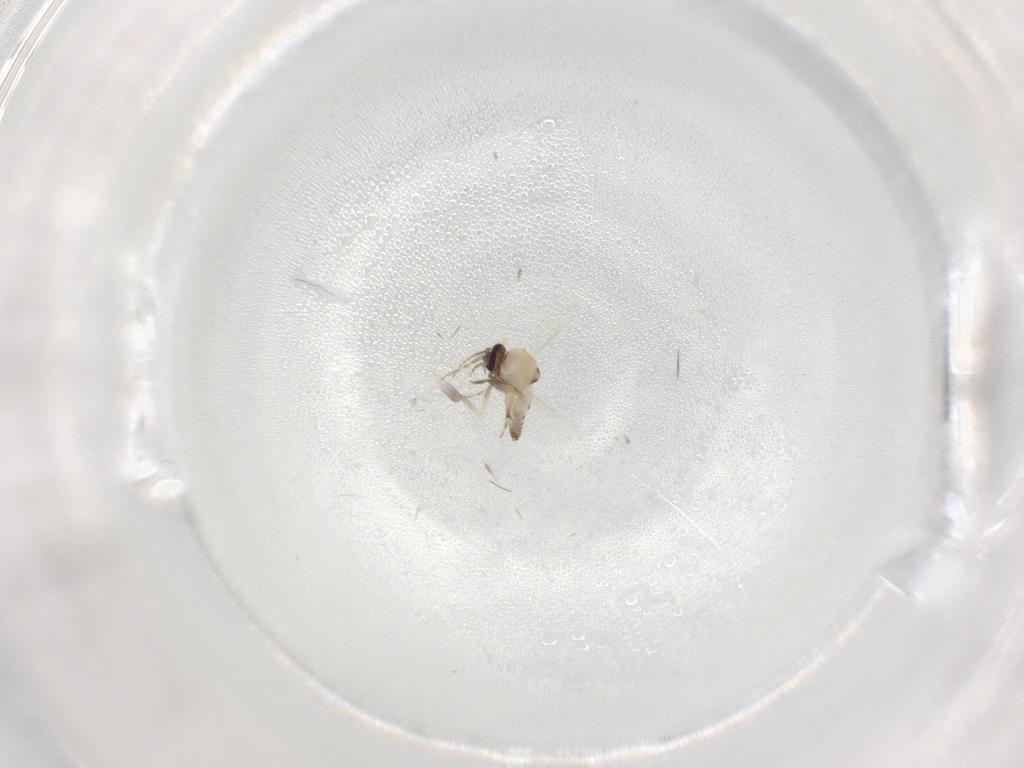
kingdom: Animalia
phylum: Arthropoda
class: Insecta
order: Diptera
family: Ceratopogonidae
